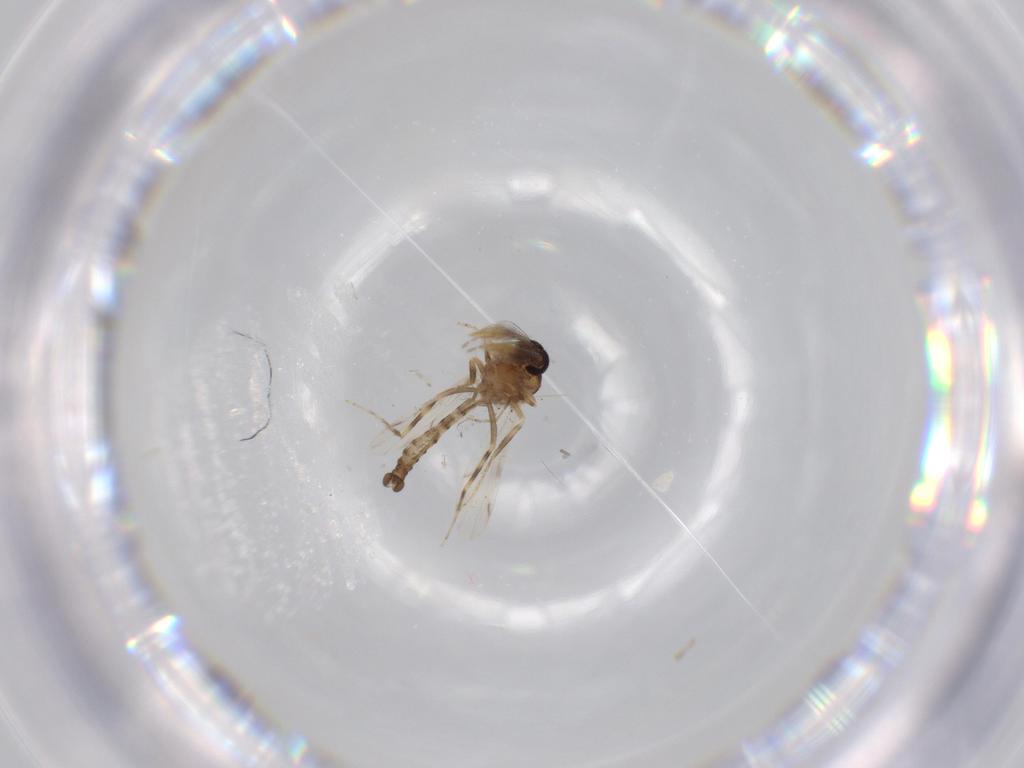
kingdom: Animalia
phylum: Arthropoda
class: Insecta
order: Diptera
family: Ceratopogonidae
